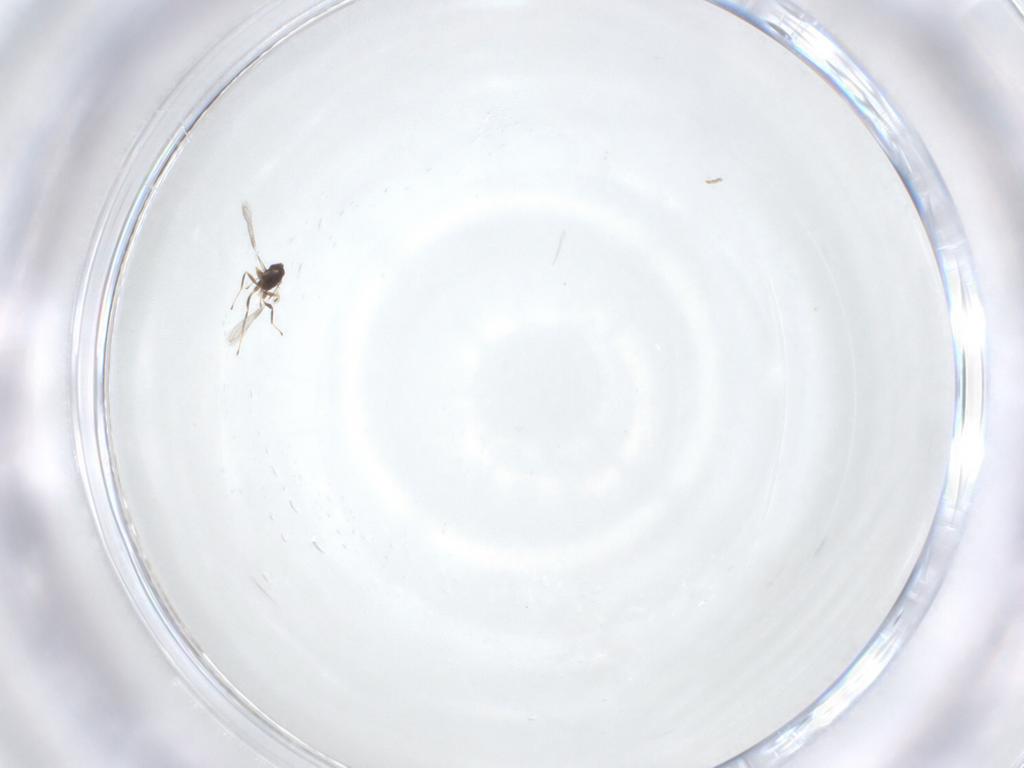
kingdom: Animalia
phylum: Arthropoda
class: Insecta
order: Hymenoptera
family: Mymaridae
